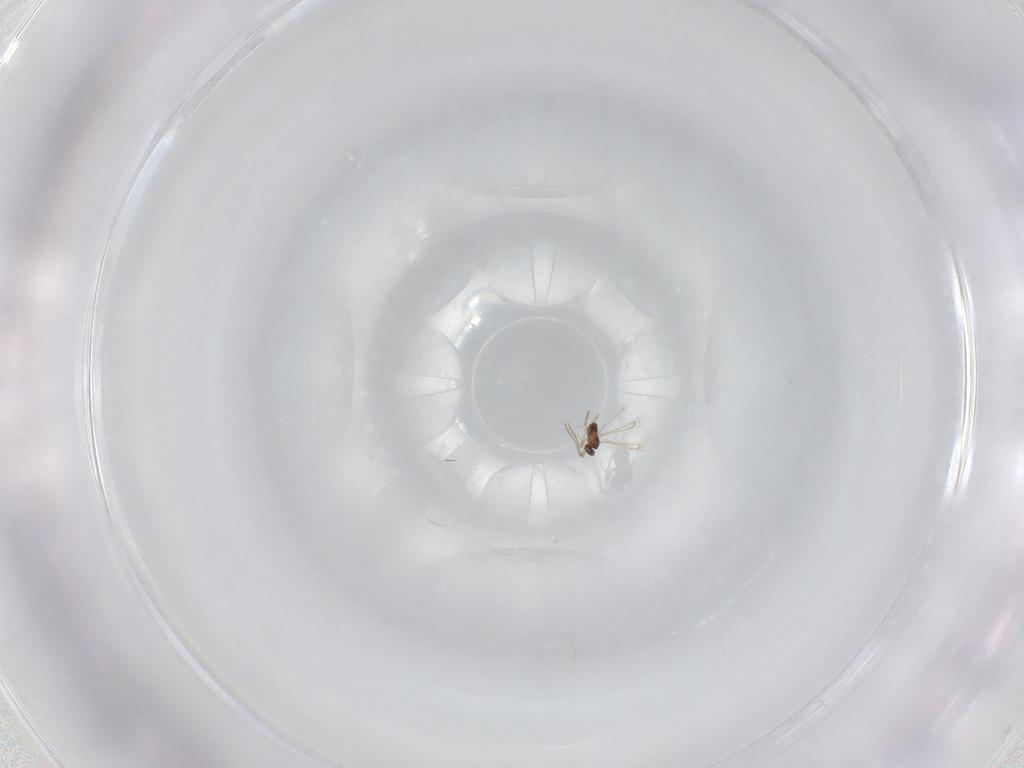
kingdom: Animalia
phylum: Arthropoda
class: Insecta
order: Hymenoptera
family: Mymaridae
